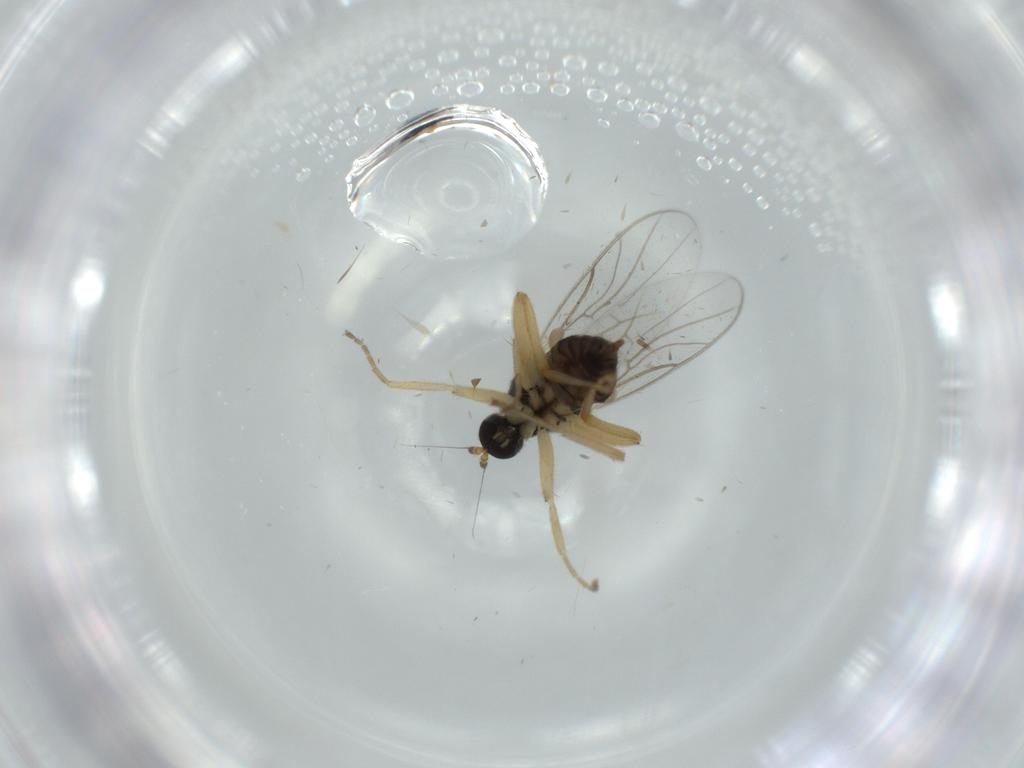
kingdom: Animalia
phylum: Arthropoda
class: Insecta
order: Diptera
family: Hybotidae
